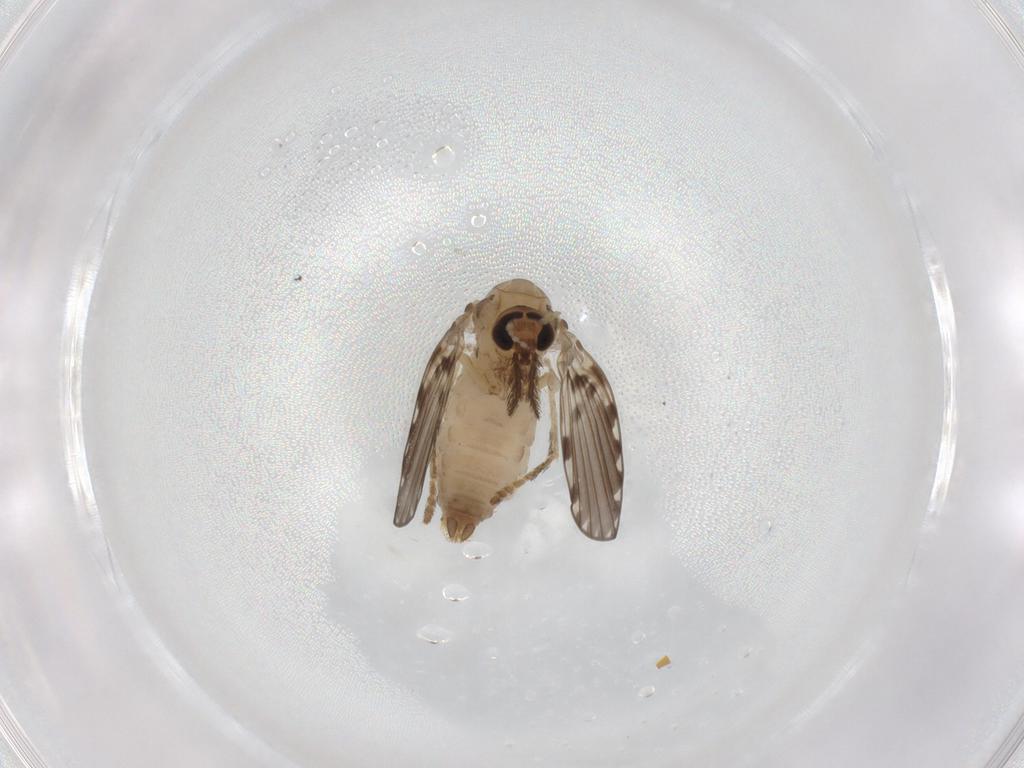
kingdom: Animalia
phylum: Arthropoda
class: Insecta
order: Diptera
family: Psychodidae
